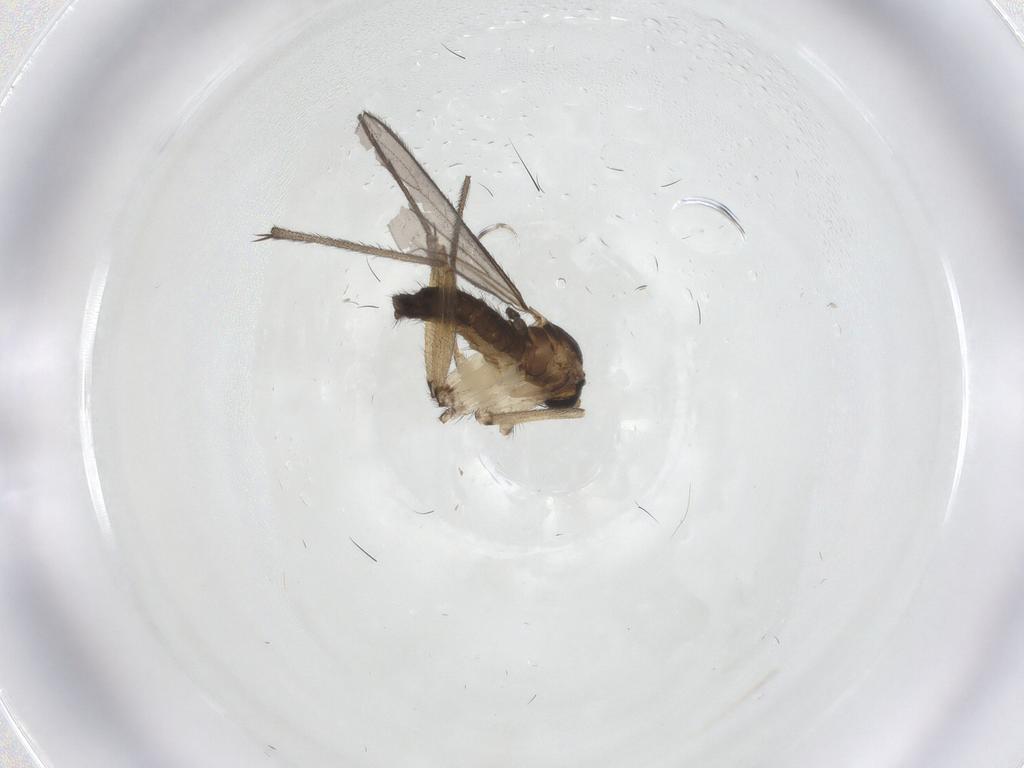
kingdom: Animalia
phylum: Arthropoda
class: Insecta
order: Diptera
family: Sciaridae
